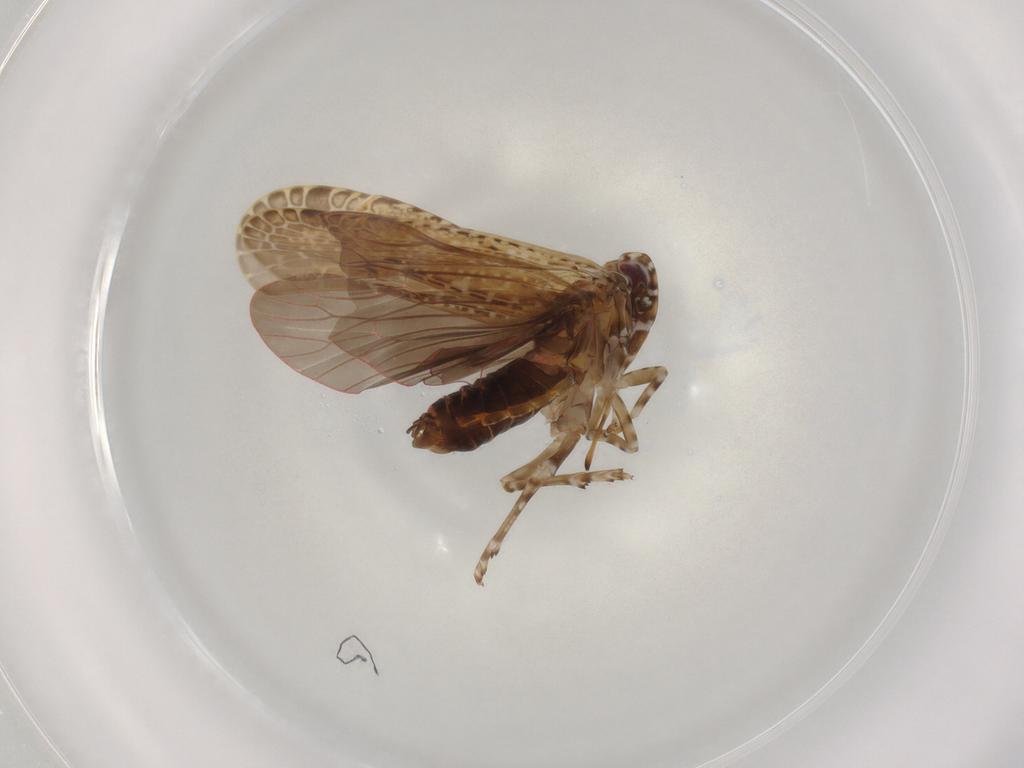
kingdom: Animalia
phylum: Arthropoda
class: Insecta
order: Hemiptera
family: Achilidae
